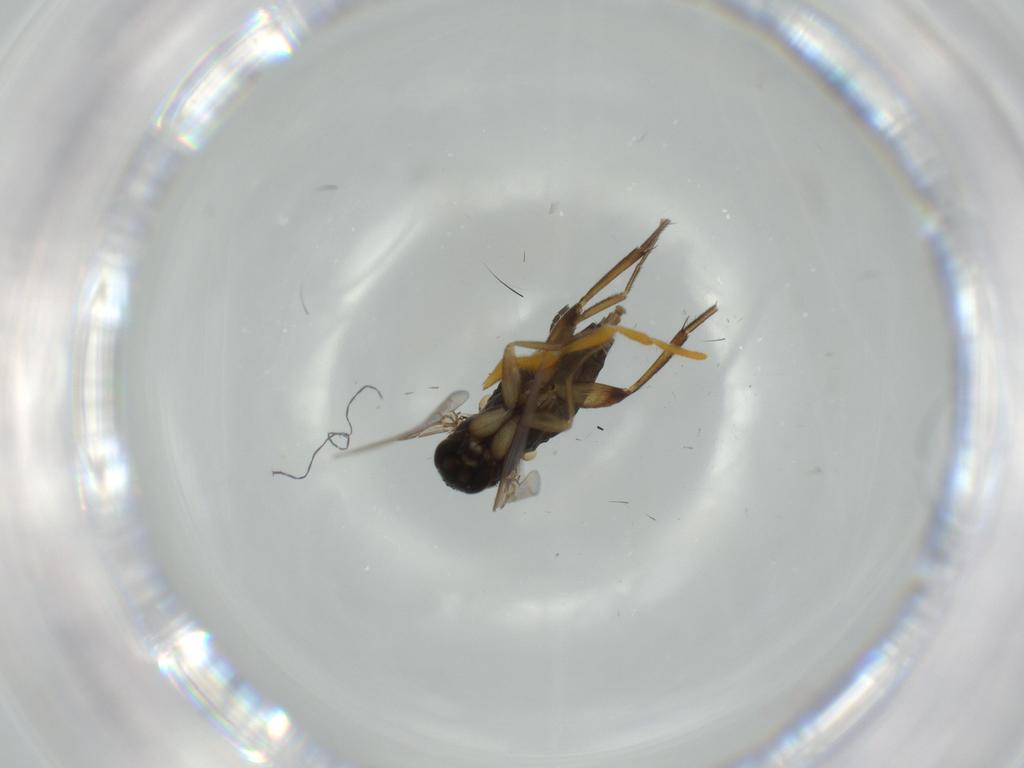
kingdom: Animalia
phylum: Arthropoda
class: Insecta
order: Diptera
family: Phoridae
